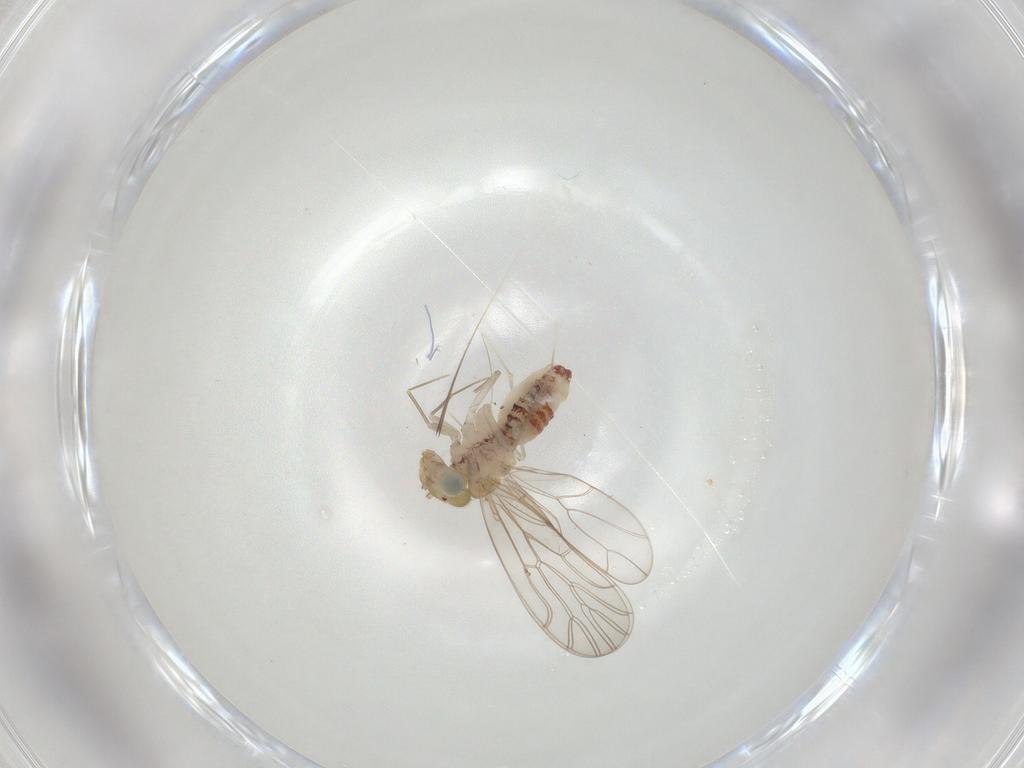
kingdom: Animalia
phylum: Arthropoda
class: Insecta
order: Psocodea
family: Amphientomidae
